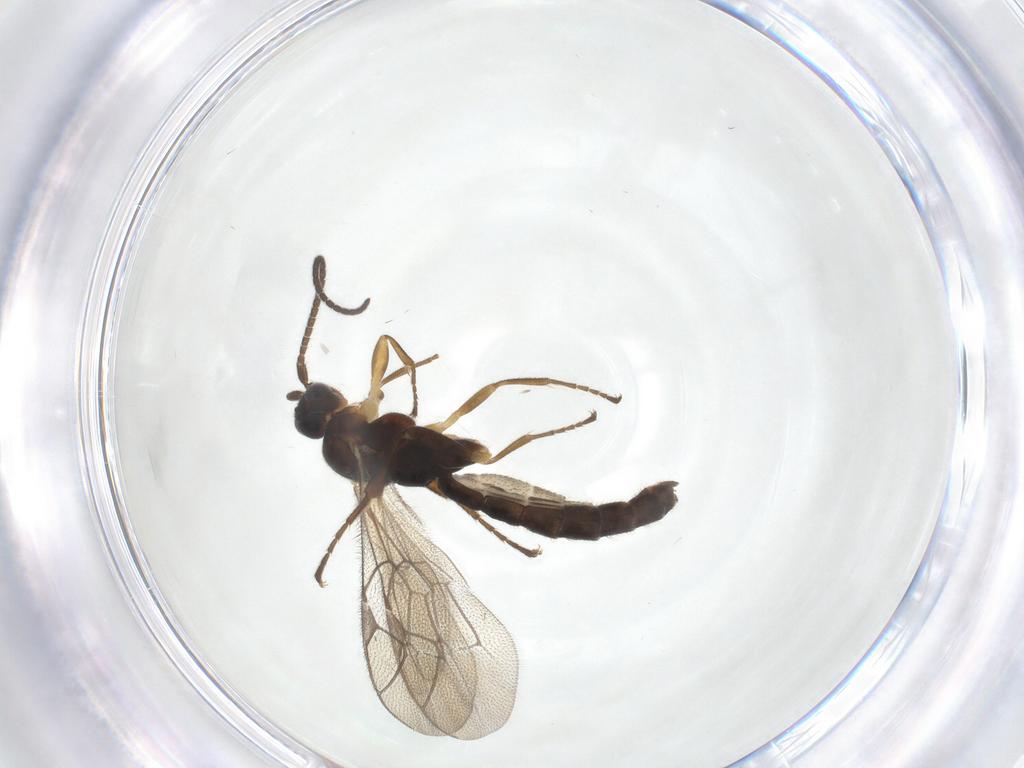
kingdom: Animalia
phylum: Arthropoda
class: Insecta
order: Hymenoptera
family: Ichneumonidae
